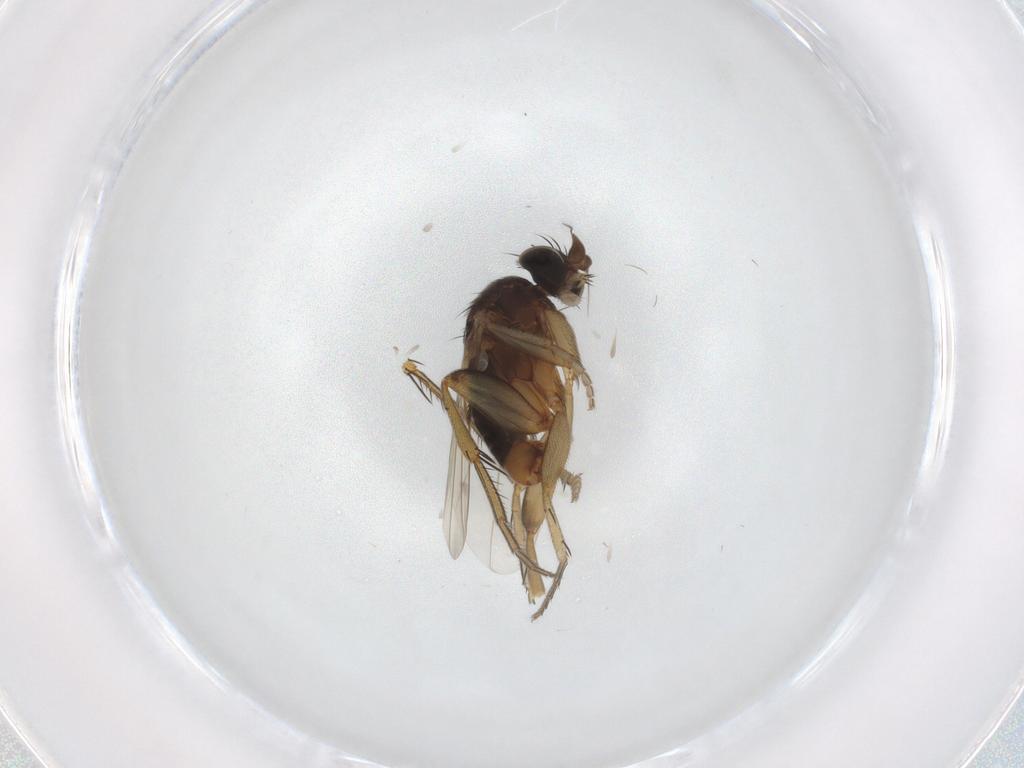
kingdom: Animalia
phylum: Arthropoda
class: Insecta
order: Diptera
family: Phoridae
